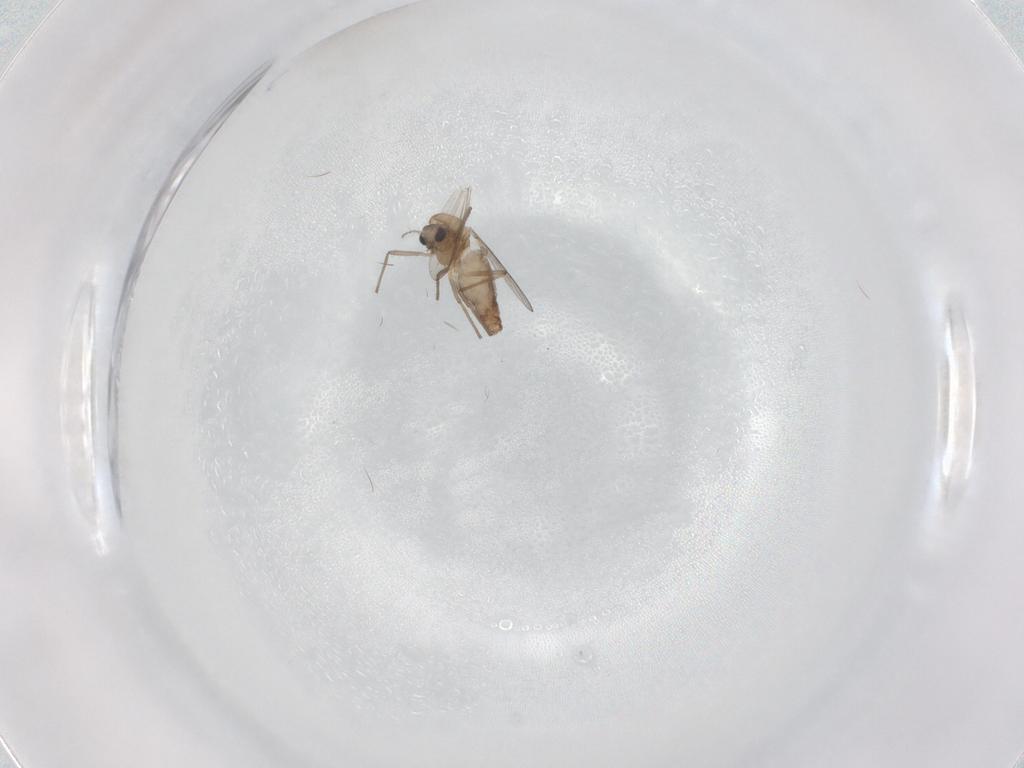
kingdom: Animalia
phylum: Arthropoda
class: Insecta
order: Diptera
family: Chironomidae
